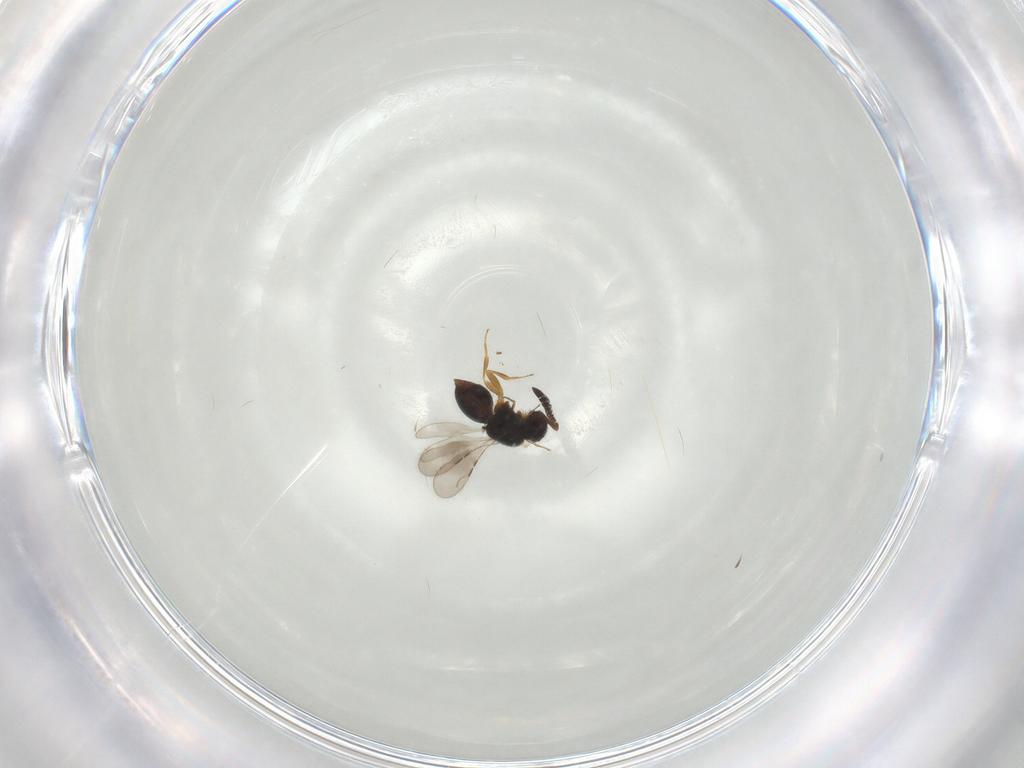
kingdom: Animalia
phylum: Arthropoda
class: Insecta
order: Hymenoptera
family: Ceraphronidae
